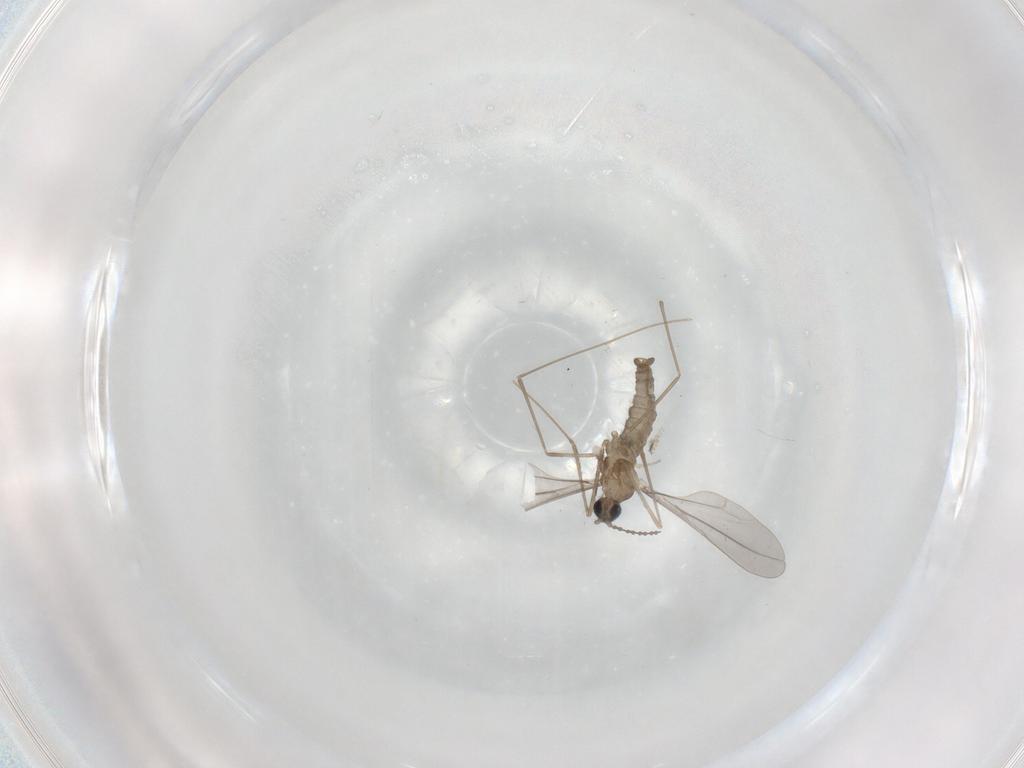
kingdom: Animalia
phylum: Arthropoda
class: Insecta
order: Diptera
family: Cecidomyiidae
